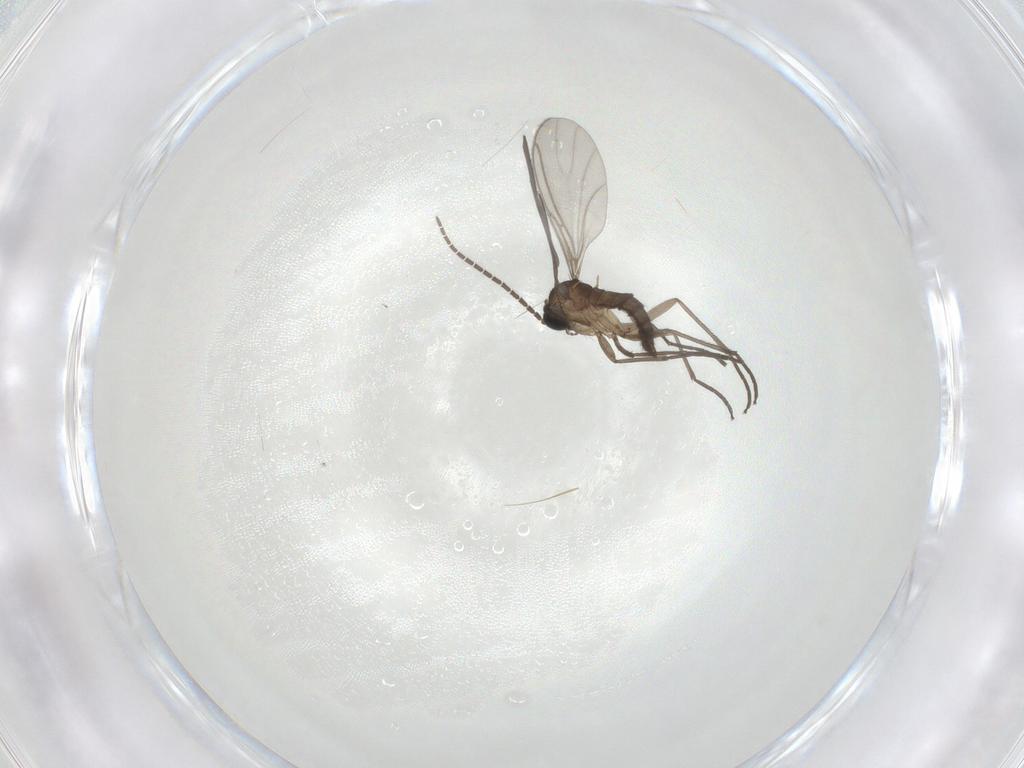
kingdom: Animalia
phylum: Arthropoda
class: Insecta
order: Diptera
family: Sciaridae
